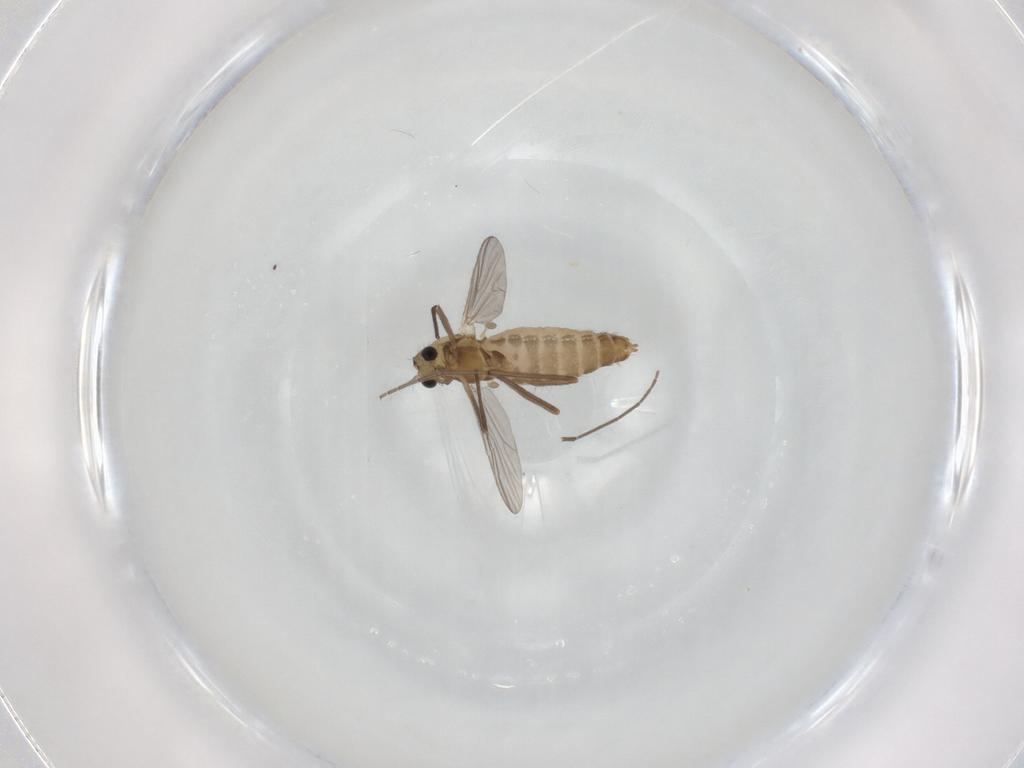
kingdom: Animalia
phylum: Arthropoda
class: Insecta
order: Diptera
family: Chironomidae
